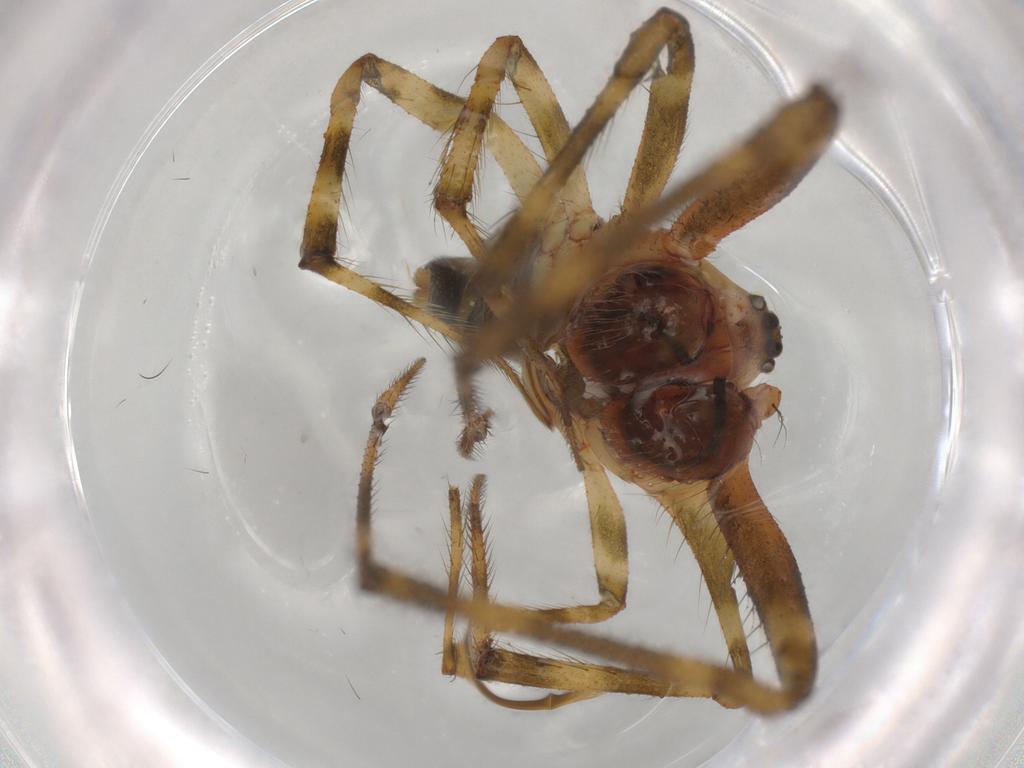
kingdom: Animalia
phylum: Arthropoda
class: Arachnida
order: Araneae
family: Theridiidae
